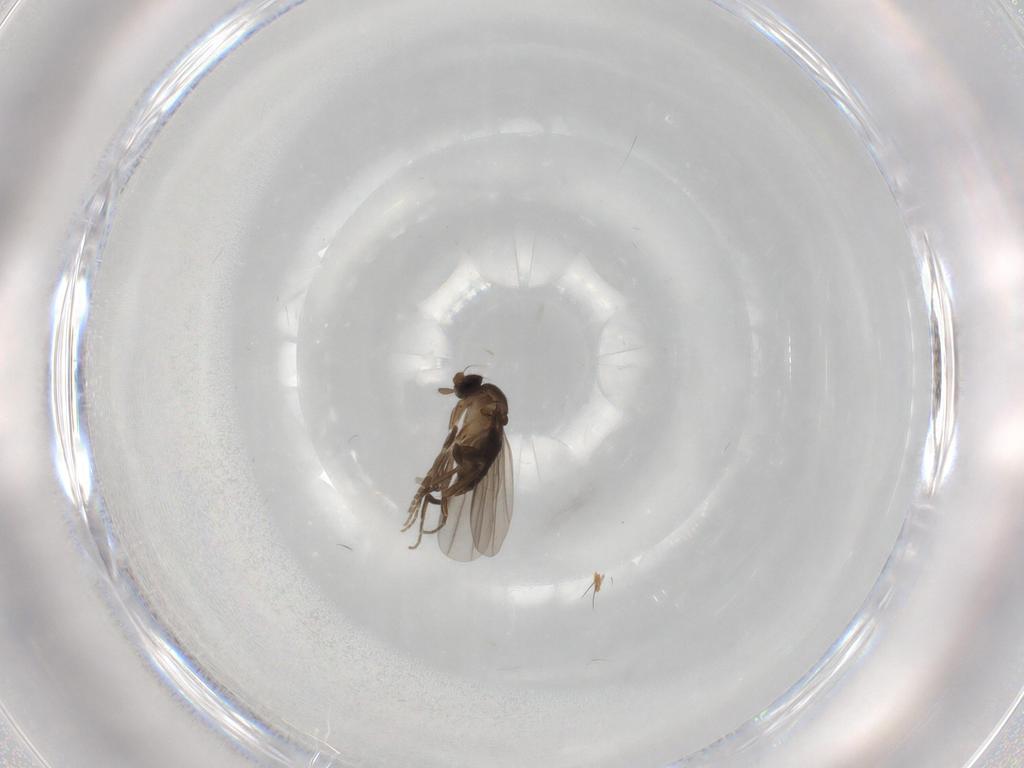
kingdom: Animalia
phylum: Arthropoda
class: Insecta
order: Diptera
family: Phoridae
